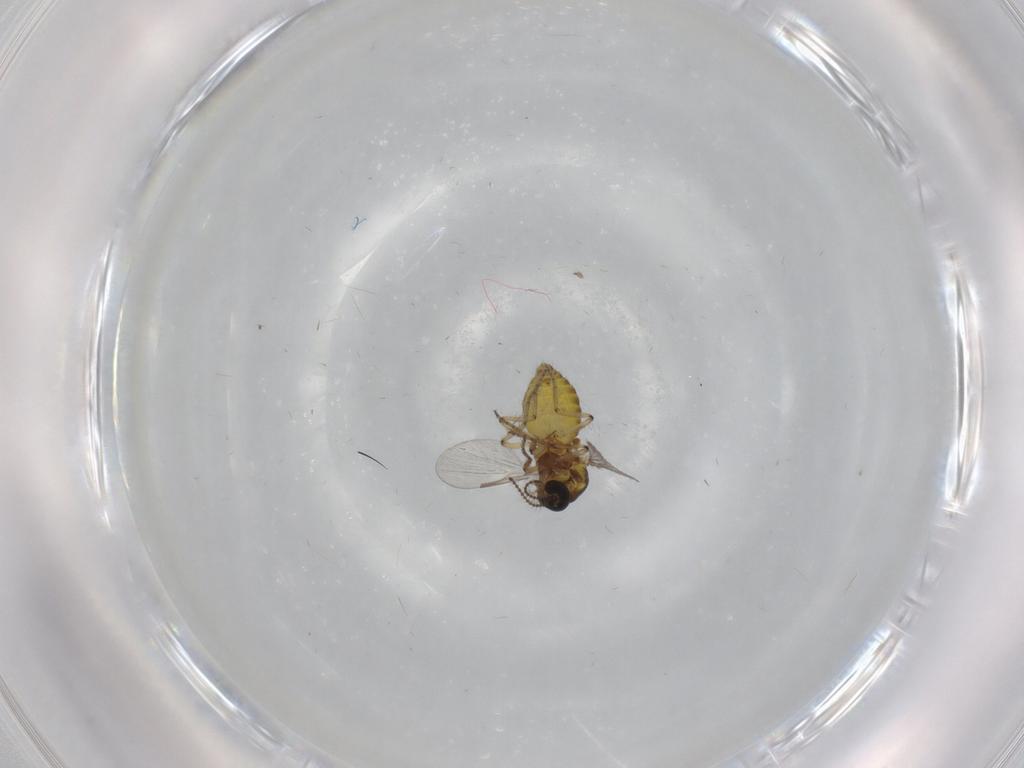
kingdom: Animalia
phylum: Arthropoda
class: Insecta
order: Diptera
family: Ceratopogonidae
